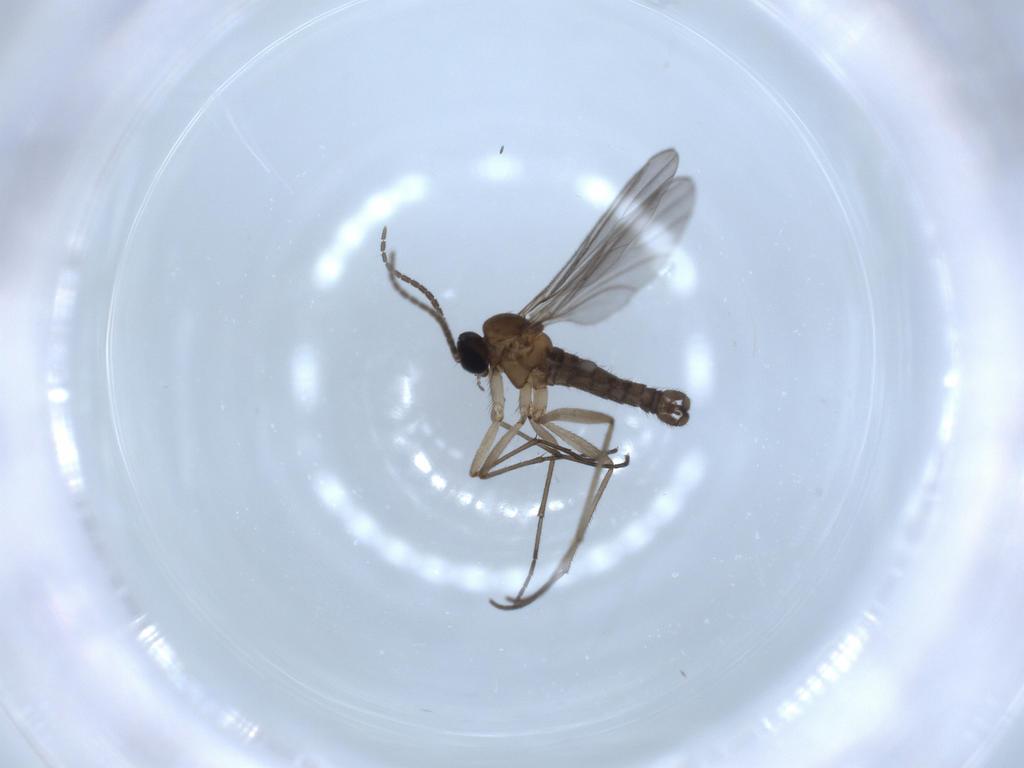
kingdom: Animalia
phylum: Arthropoda
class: Insecta
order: Diptera
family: Sciaridae
